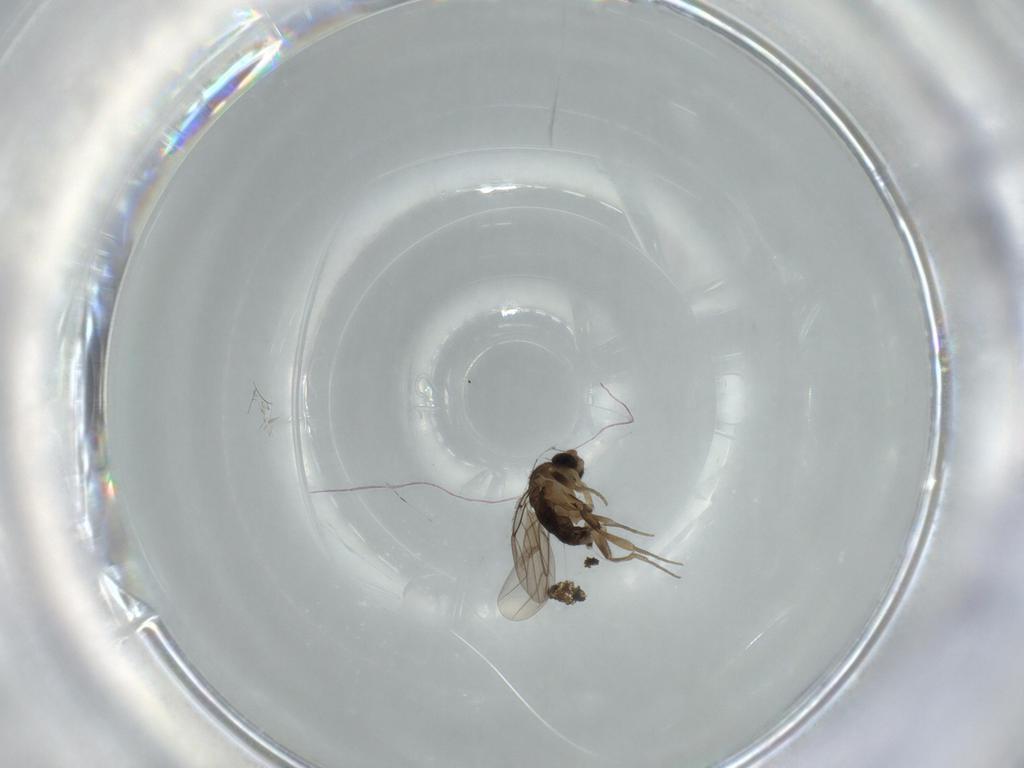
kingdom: Animalia
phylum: Arthropoda
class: Insecta
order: Diptera
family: Phoridae
